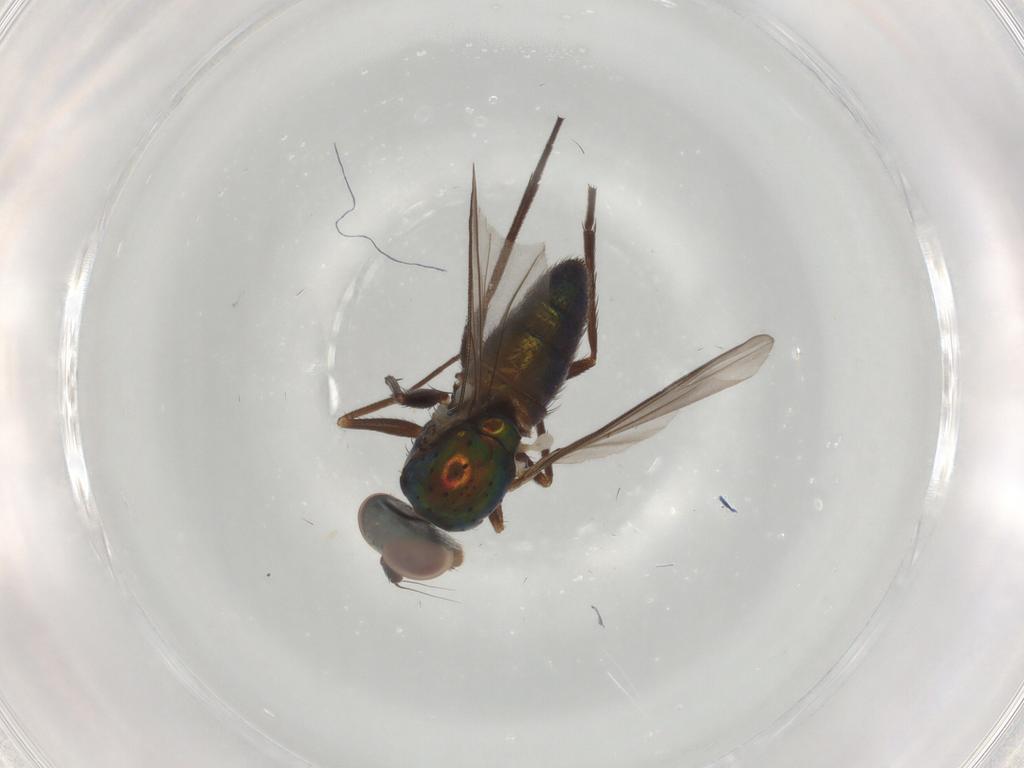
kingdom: Animalia
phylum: Arthropoda
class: Insecta
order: Diptera
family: Dolichopodidae
